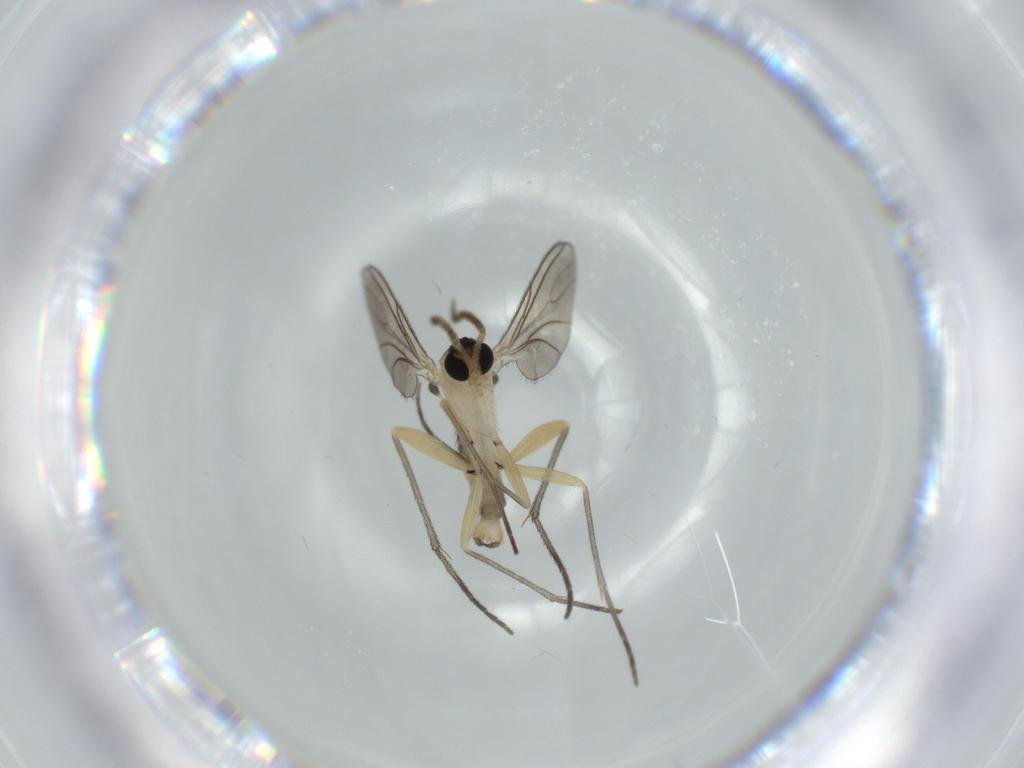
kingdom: Animalia
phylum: Arthropoda
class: Insecta
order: Diptera
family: Sciaridae
